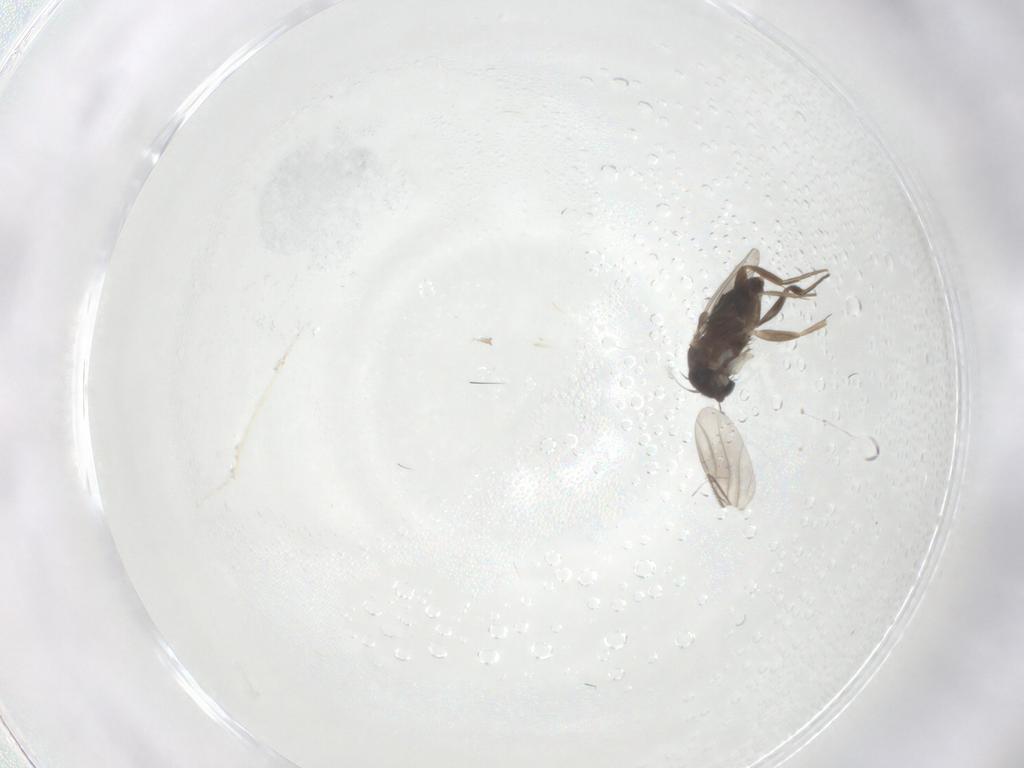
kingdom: Animalia
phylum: Arthropoda
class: Insecta
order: Diptera
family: Phoridae
